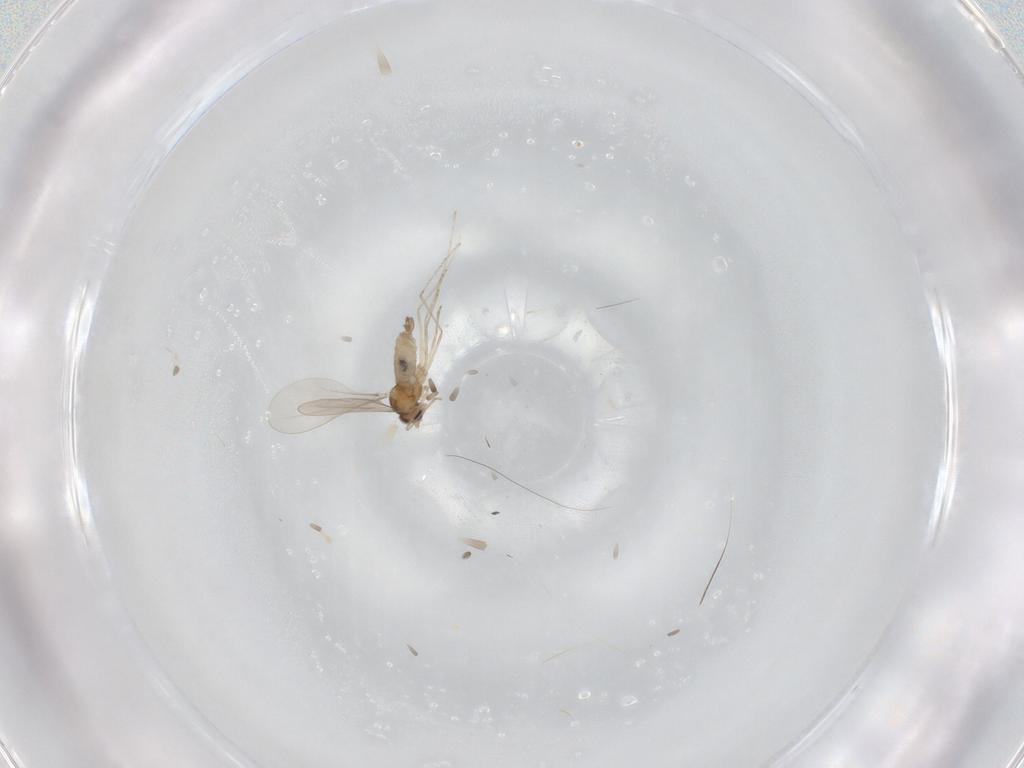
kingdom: Animalia
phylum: Arthropoda
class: Insecta
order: Diptera
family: Cecidomyiidae
